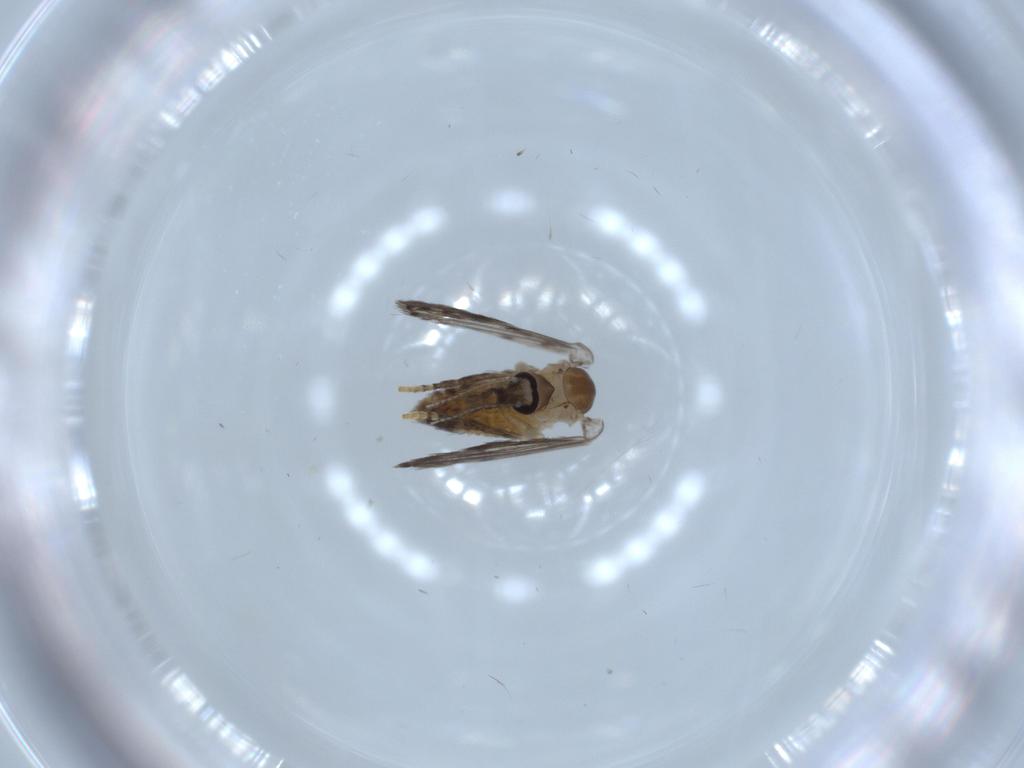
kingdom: Animalia
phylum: Arthropoda
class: Insecta
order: Diptera
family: Psychodidae
